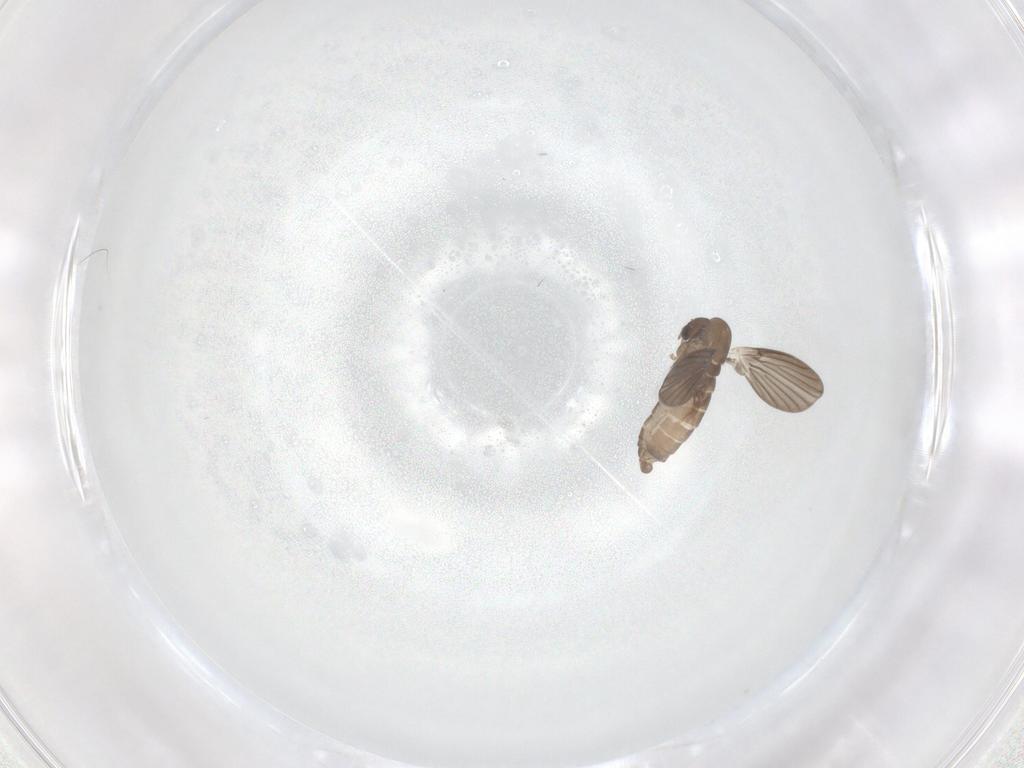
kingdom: Animalia
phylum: Arthropoda
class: Insecta
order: Diptera
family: Psychodidae
